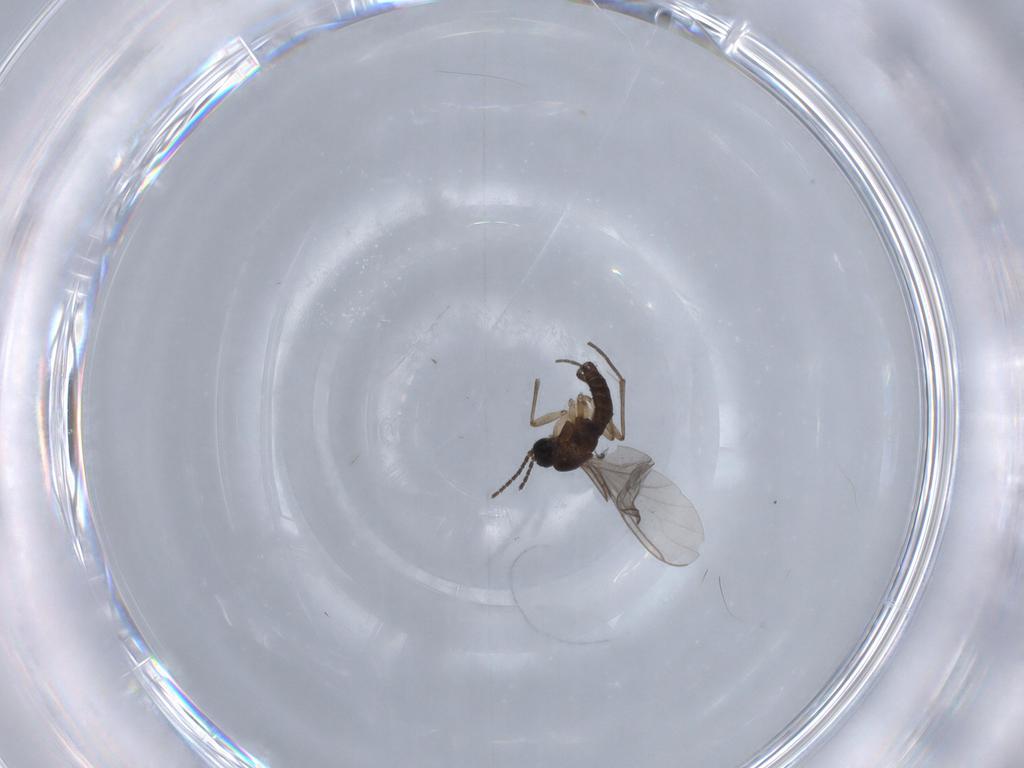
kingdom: Animalia
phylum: Arthropoda
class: Insecta
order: Diptera
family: Sciaridae
